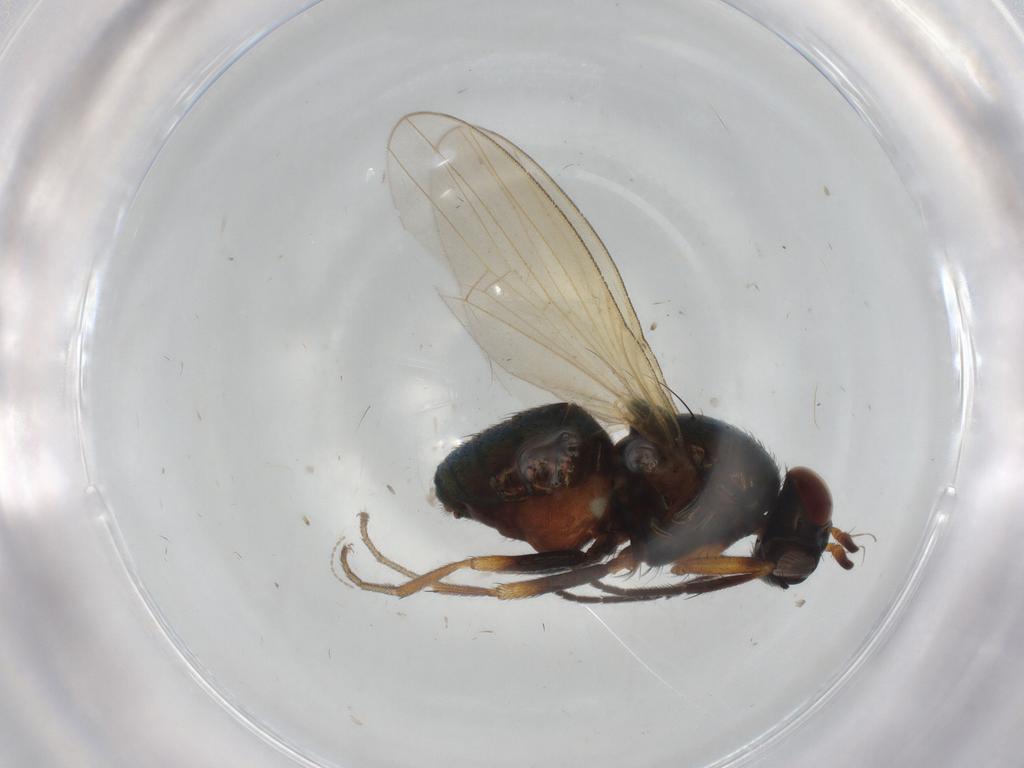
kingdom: Animalia
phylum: Arthropoda
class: Insecta
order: Diptera
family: Lauxaniidae
